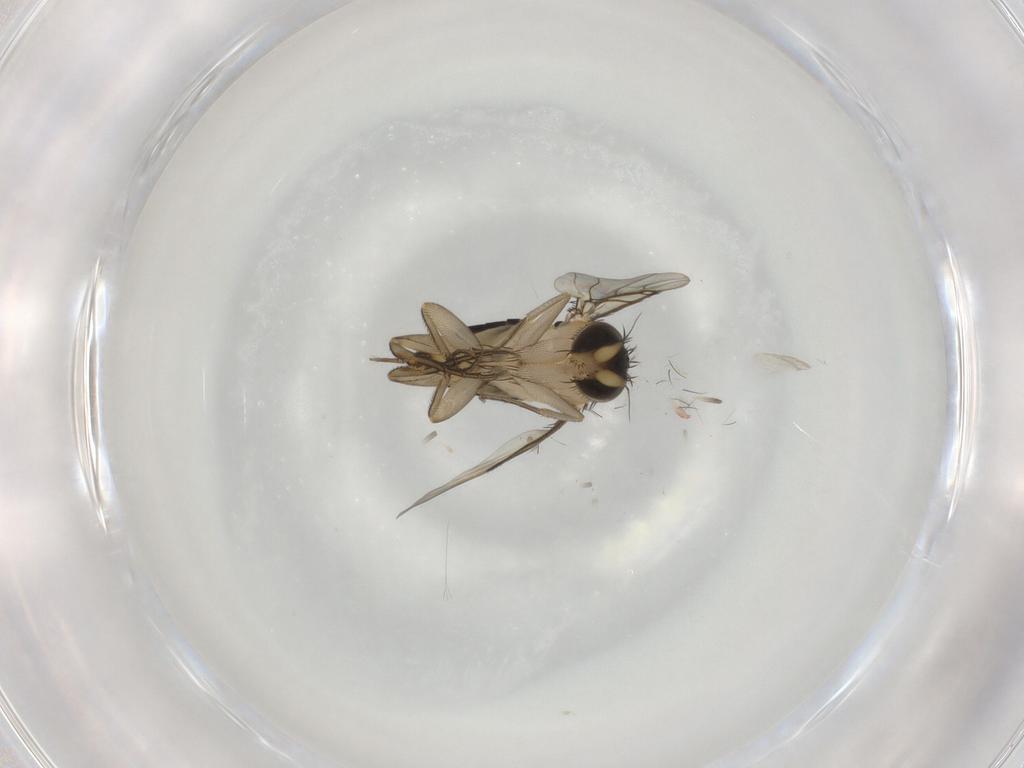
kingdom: Animalia
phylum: Arthropoda
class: Insecta
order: Diptera
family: Phoridae
